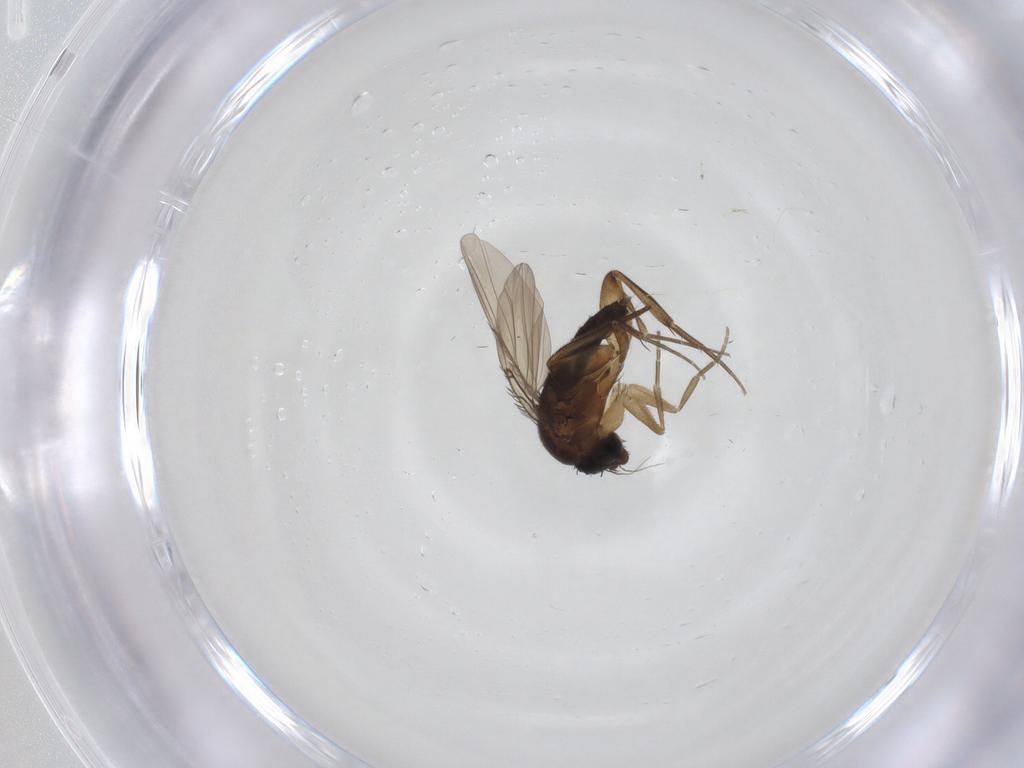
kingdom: Animalia
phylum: Arthropoda
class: Insecta
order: Diptera
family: Phoridae
